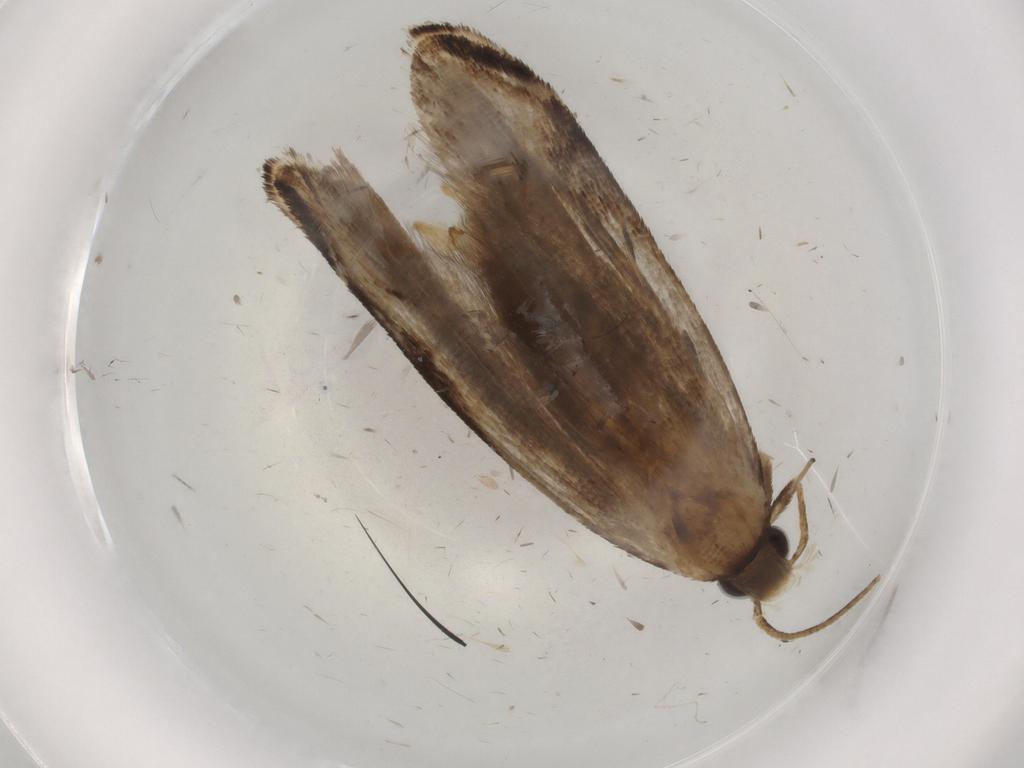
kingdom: Animalia
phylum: Arthropoda
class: Insecta
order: Lepidoptera
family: Gelechiidae
